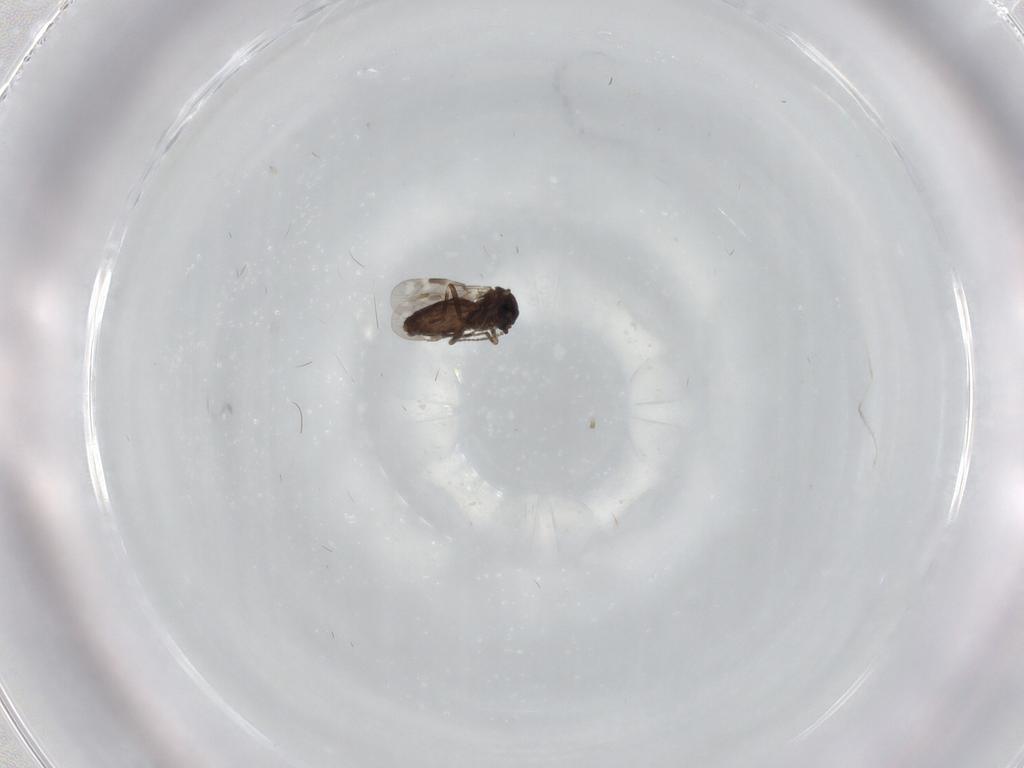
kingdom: Animalia
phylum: Arthropoda
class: Insecta
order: Diptera
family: Cecidomyiidae
